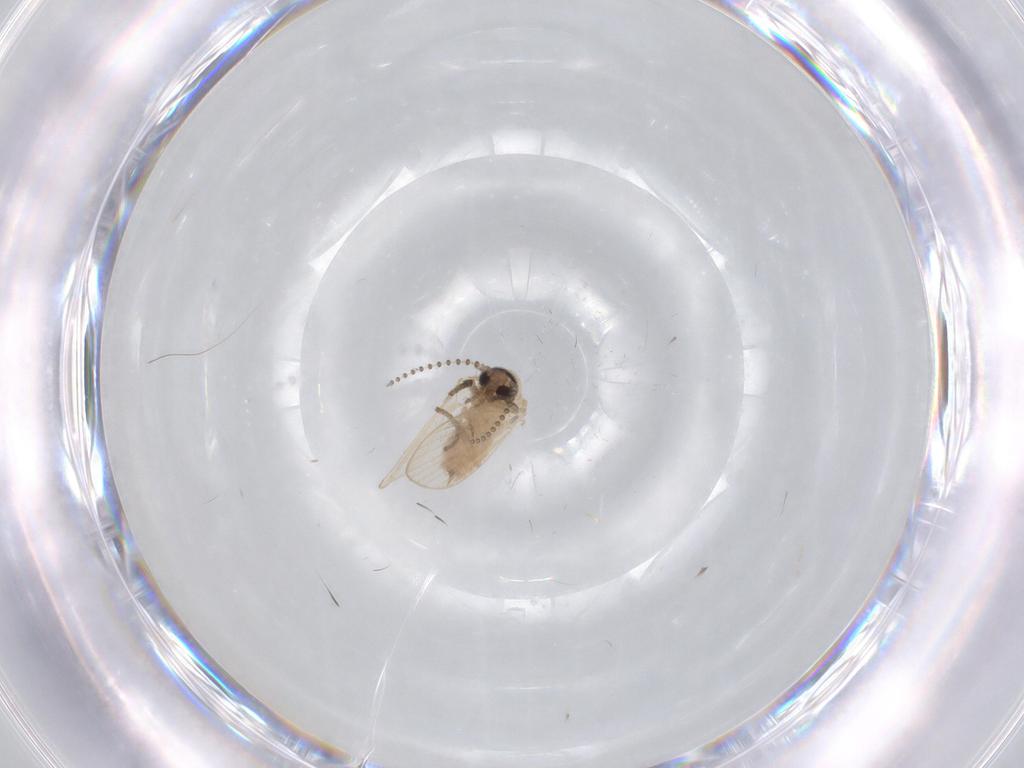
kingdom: Animalia
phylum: Arthropoda
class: Insecta
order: Diptera
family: Psychodidae
